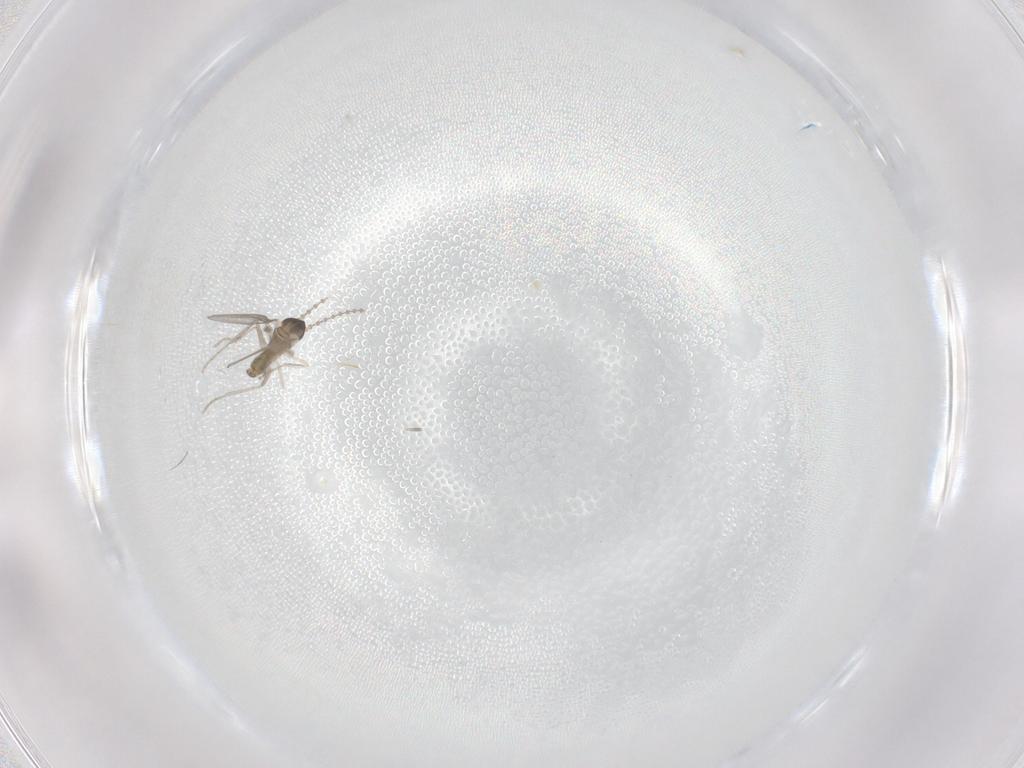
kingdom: Animalia
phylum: Arthropoda
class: Insecta
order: Diptera
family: Cecidomyiidae
